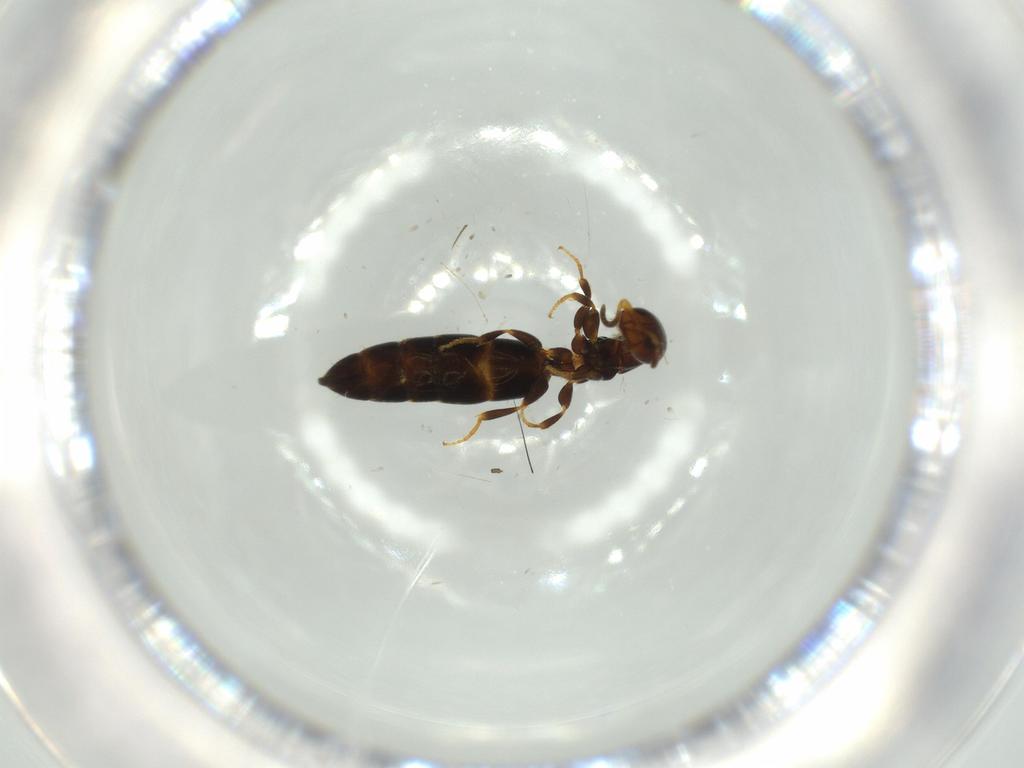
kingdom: Animalia
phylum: Arthropoda
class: Insecta
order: Hymenoptera
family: Bethylidae
